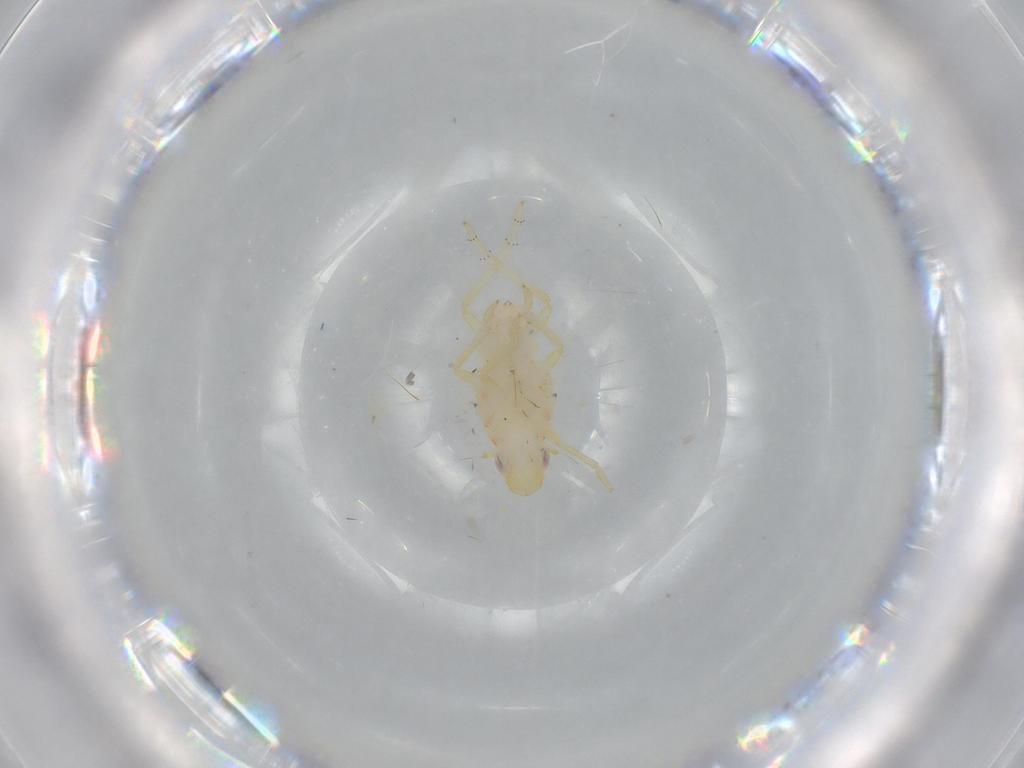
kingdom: Animalia
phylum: Arthropoda
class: Insecta
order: Hemiptera
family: Tropiduchidae
